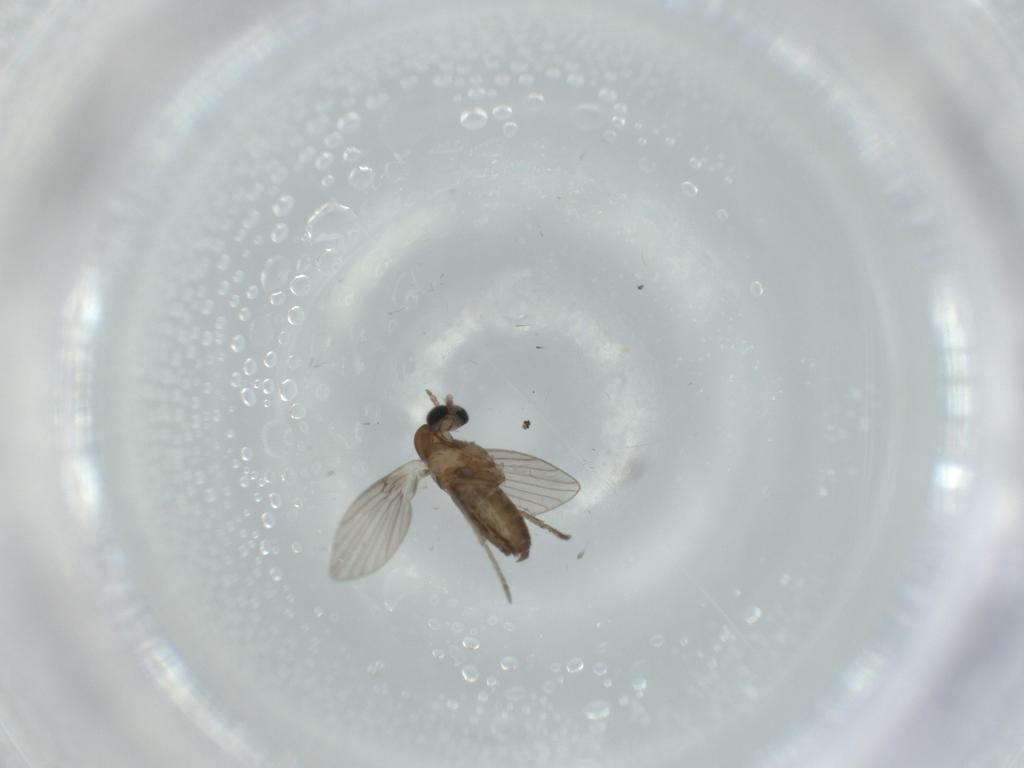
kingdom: Animalia
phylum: Arthropoda
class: Insecta
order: Diptera
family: Psychodidae
